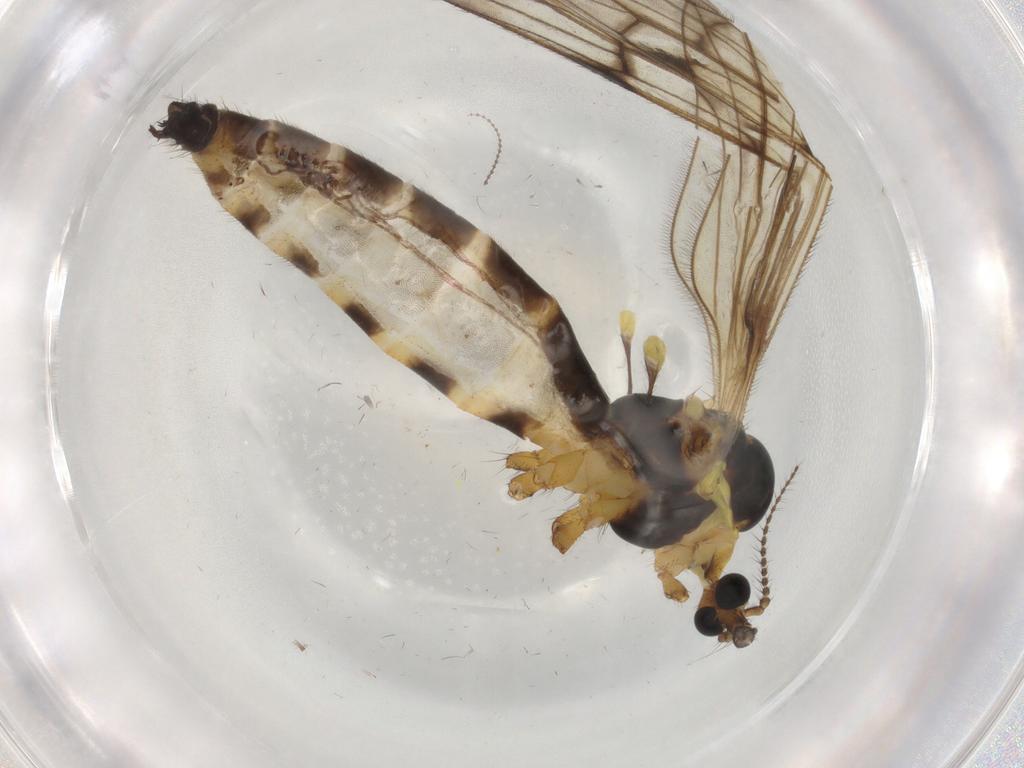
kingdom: Animalia
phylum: Arthropoda
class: Insecta
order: Diptera
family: Limoniidae
